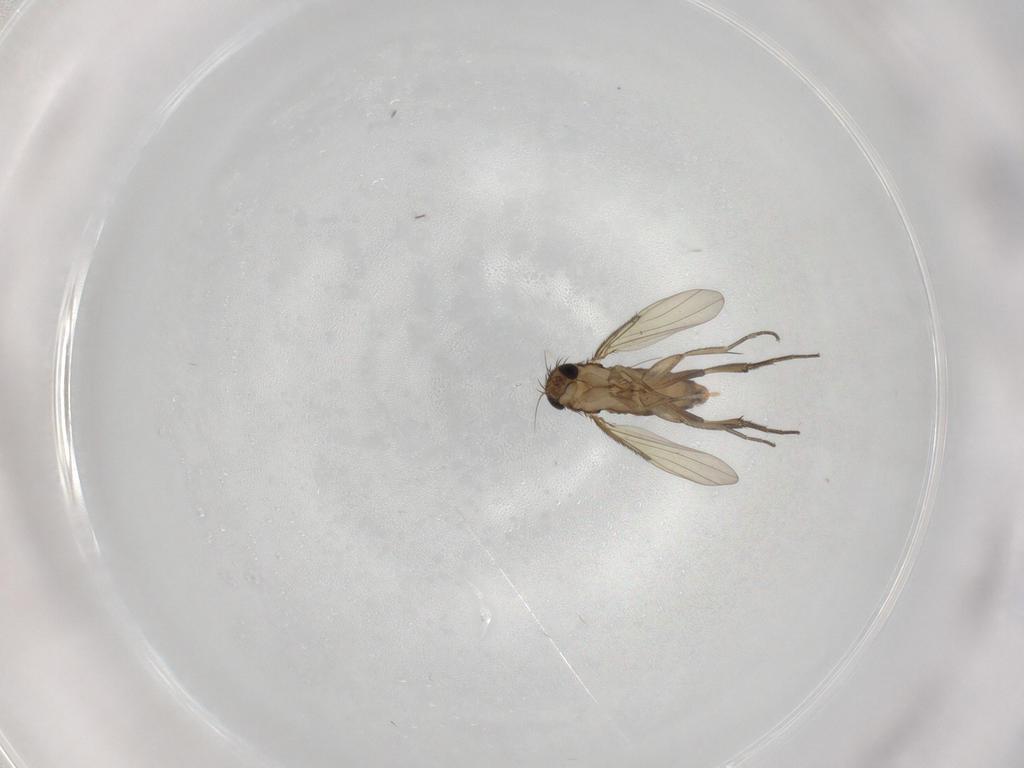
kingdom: Animalia
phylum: Arthropoda
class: Insecta
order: Diptera
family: Phoridae
